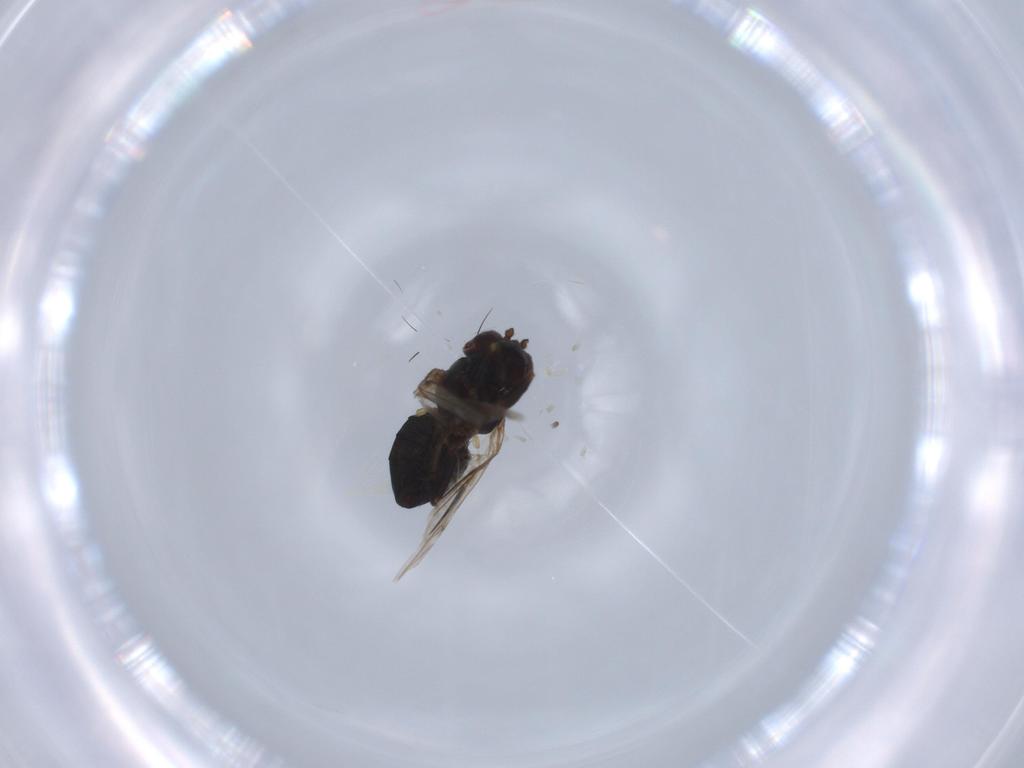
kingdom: Animalia
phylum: Arthropoda
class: Insecta
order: Diptera
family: Ceratopogonidae
